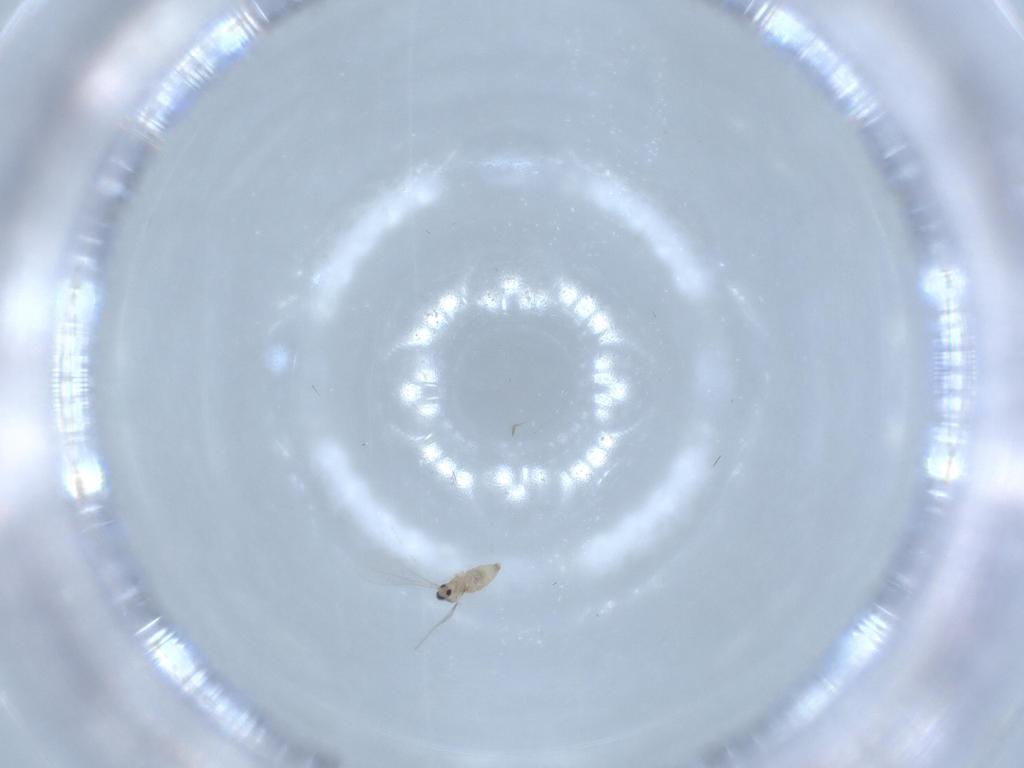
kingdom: Animalia
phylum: Arthropoda
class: Insecta
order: Diptera
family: Cecidomyiidae
